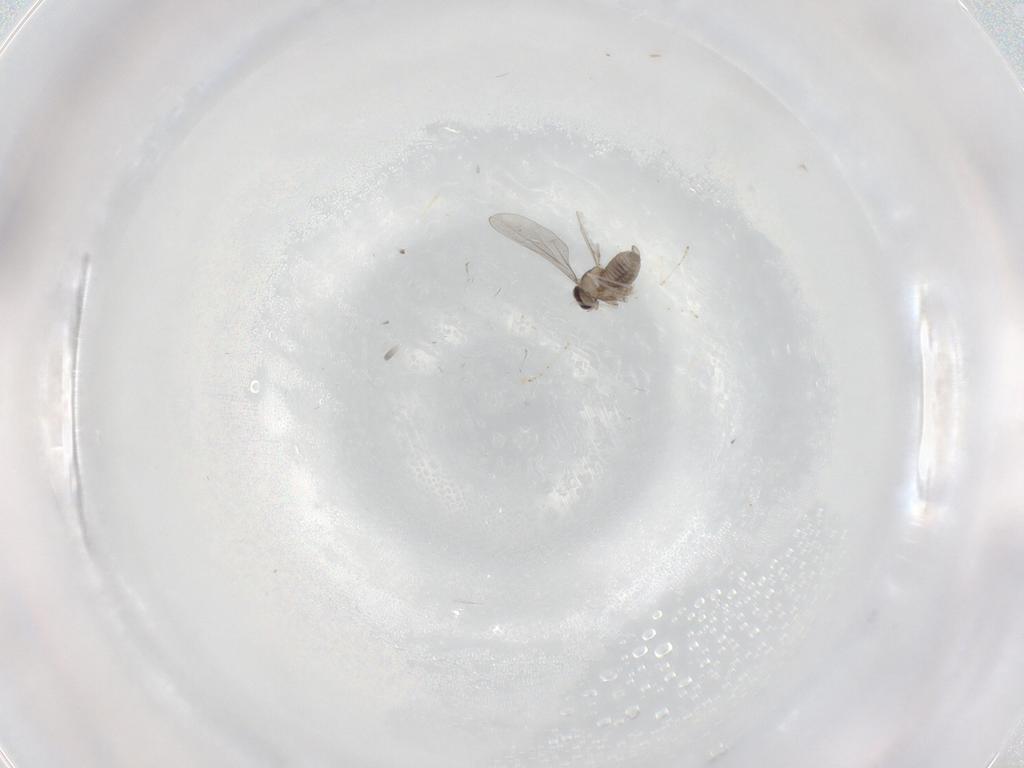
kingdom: Animalia
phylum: Arthropoda
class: Insecta
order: Diptera
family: Cecidomyiidae
